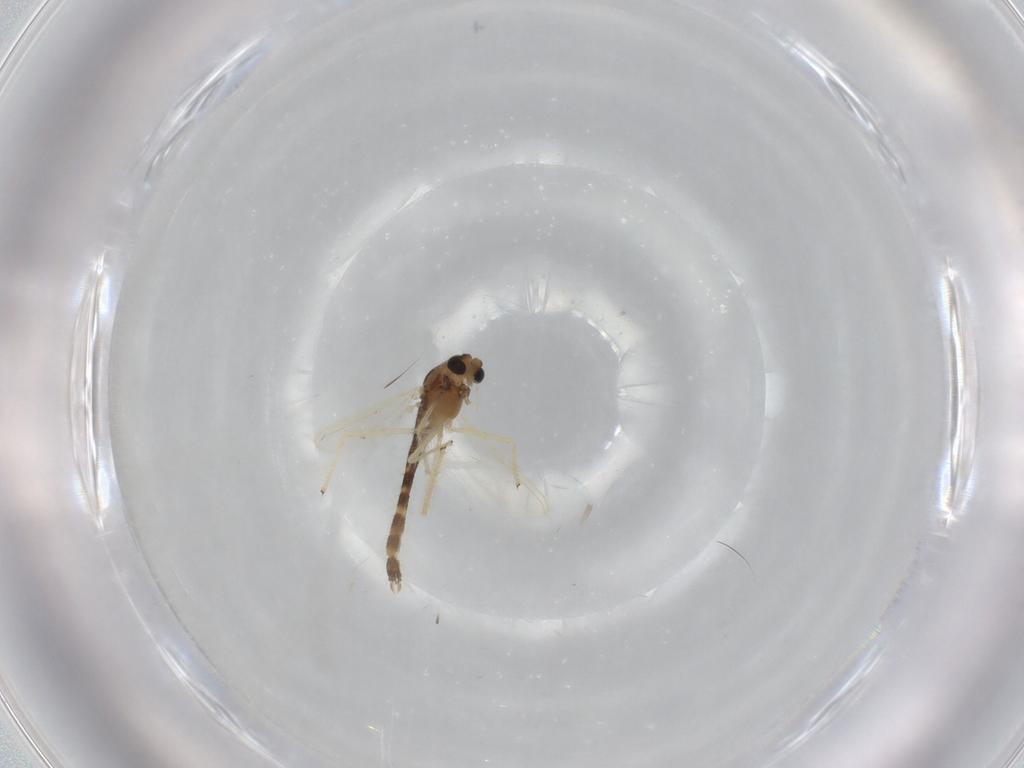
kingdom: Animalia
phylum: Arthropoda
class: Insecta
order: Diptera
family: Chironomidae
